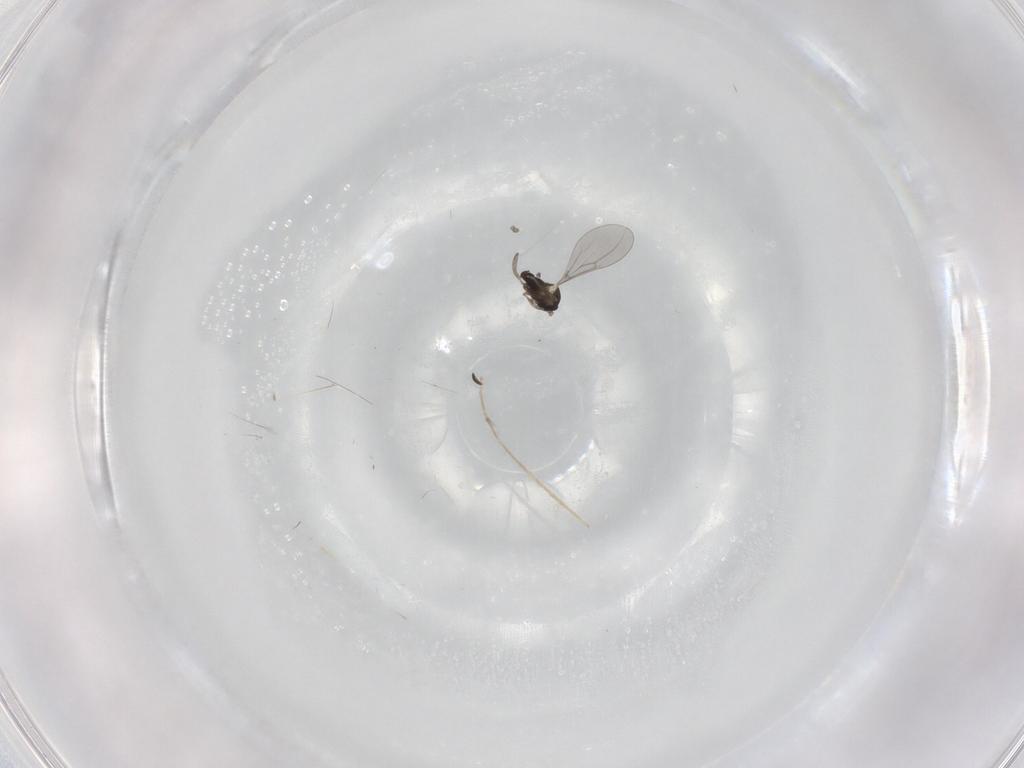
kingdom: Animalia
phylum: Arthropoda
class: Insecta
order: Diptera
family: Cecidomyiidae
